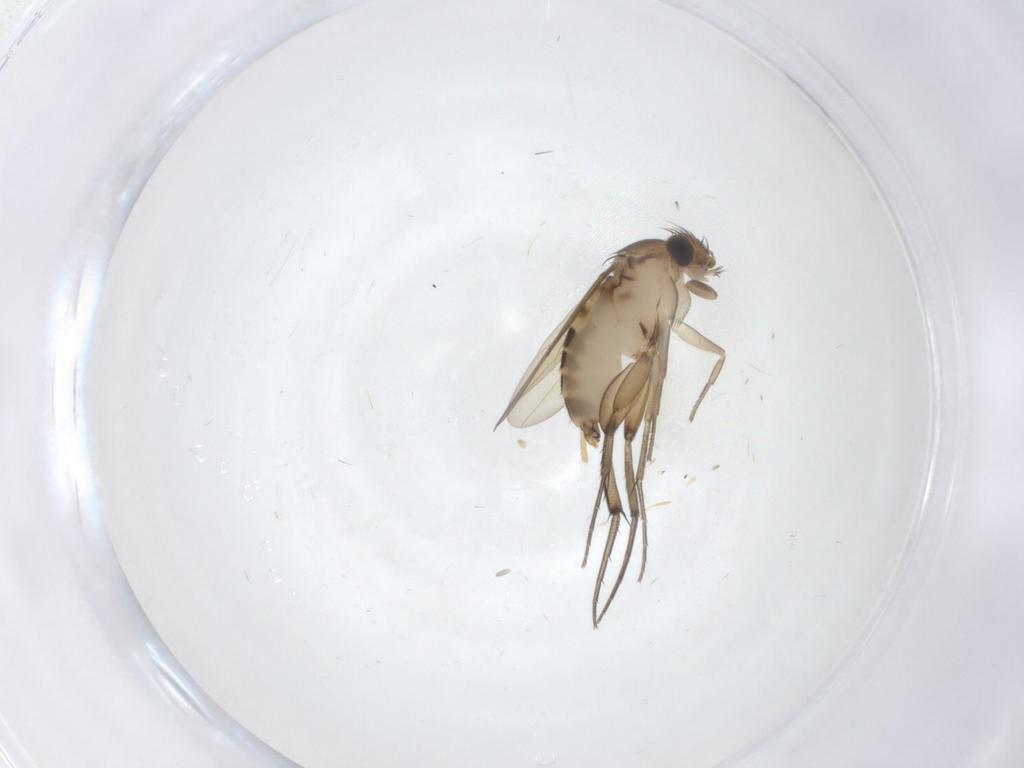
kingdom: Animalia
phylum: Arthropoda
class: Insecta
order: Diptera
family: Phoridae
